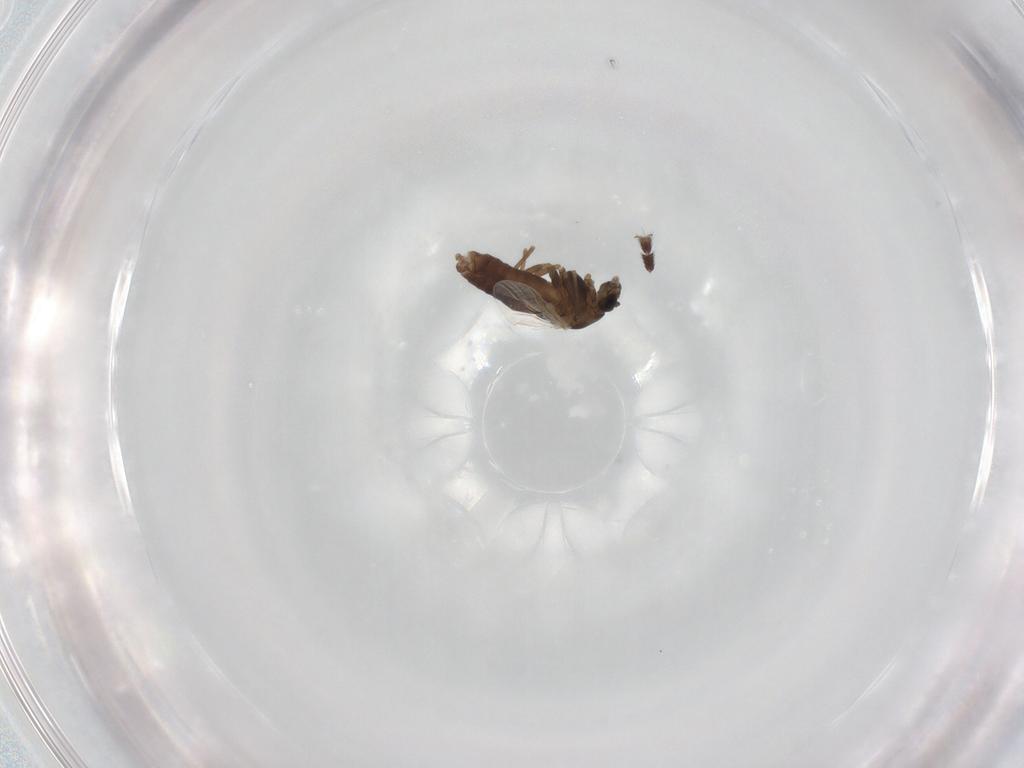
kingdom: Animalia
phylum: Arthropoda
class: Insecta
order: Diptera
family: Chironomidae
